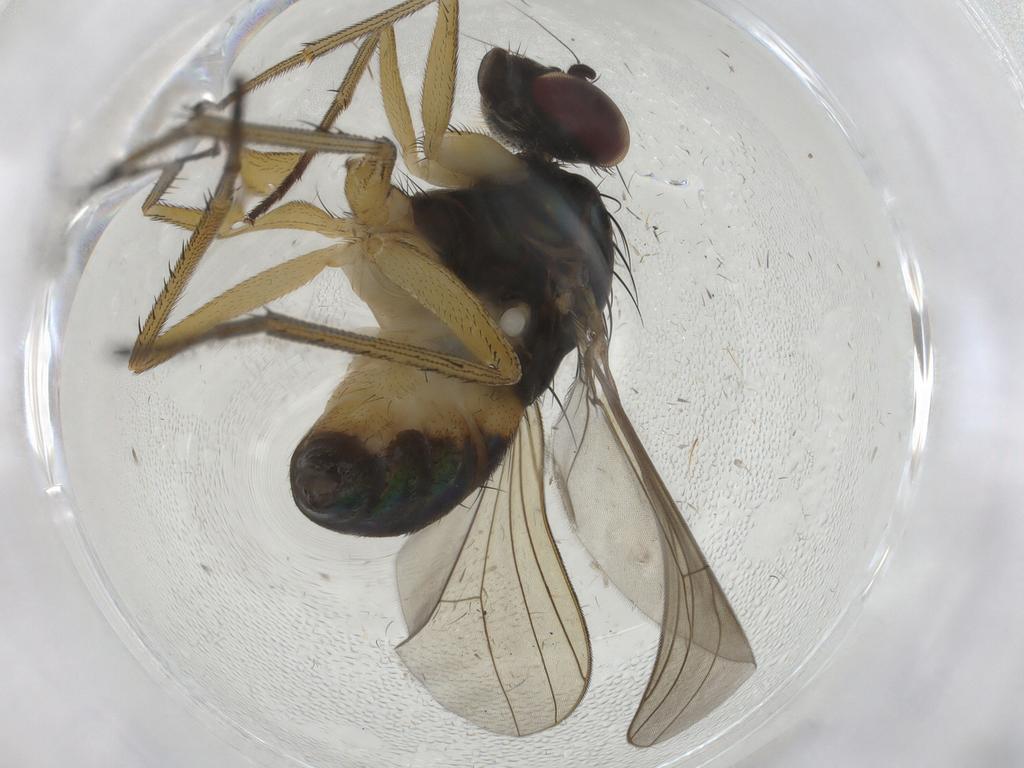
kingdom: Animalia
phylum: Arthropoda
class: Insecta
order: Diptera
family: Dolichopodidae
